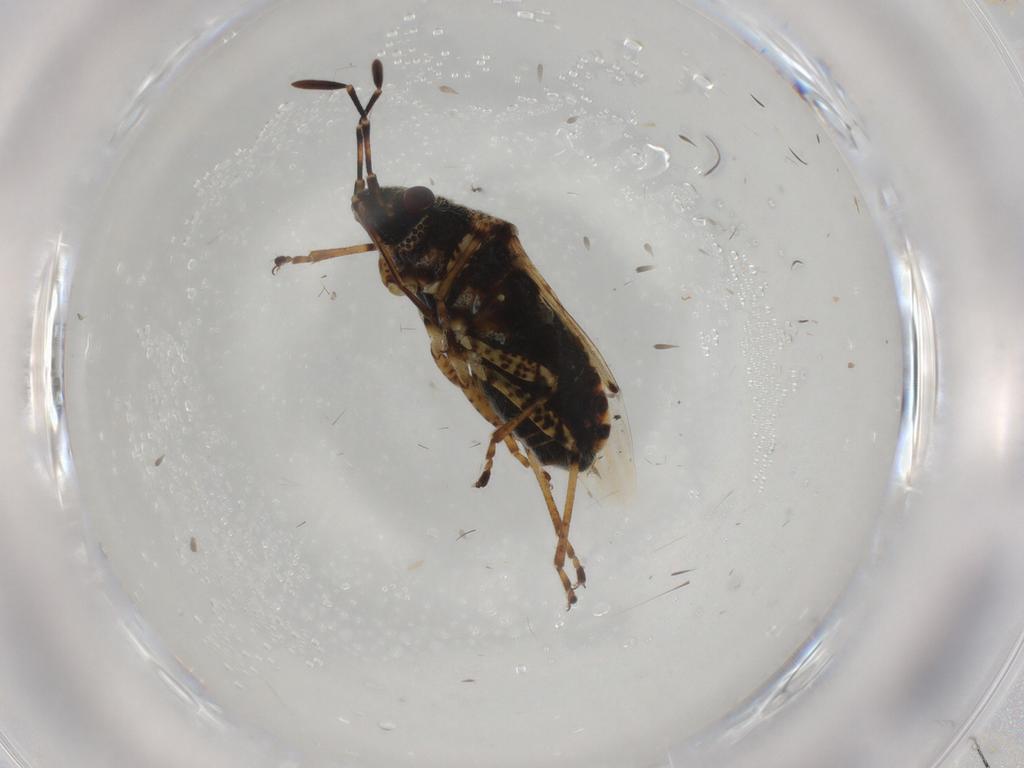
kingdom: Animalia
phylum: Arthropoda
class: Insecta
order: Hemiptera
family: Lygaeidae
